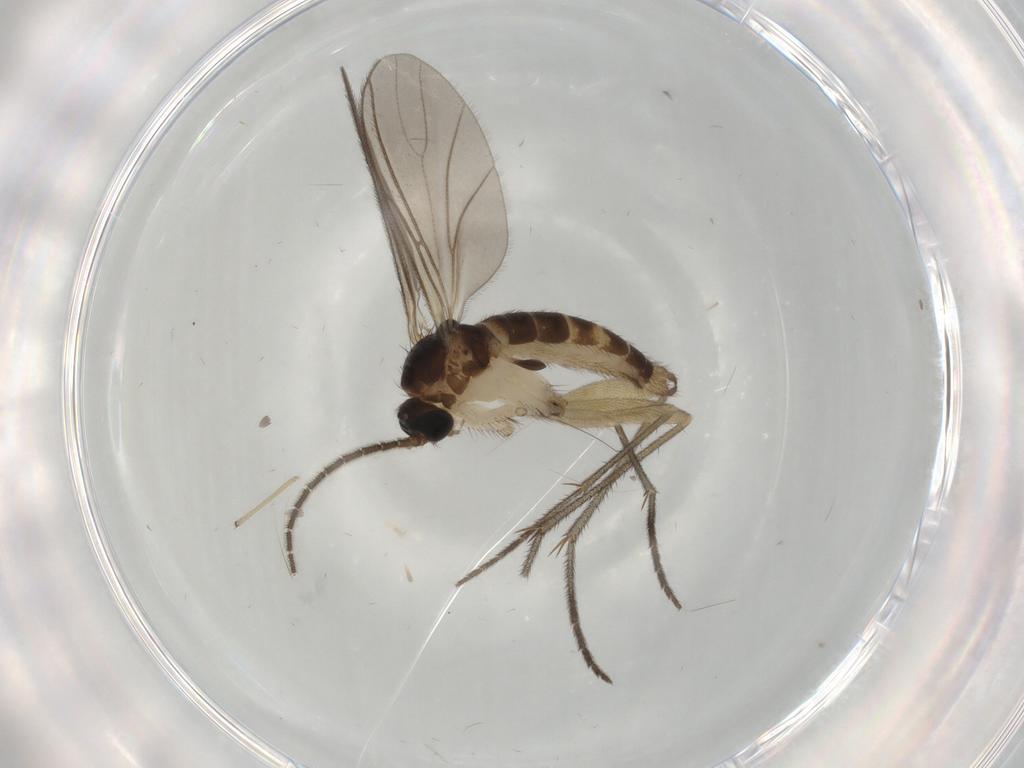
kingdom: Animalia
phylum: Arthropoda
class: Insecta
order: Diptera
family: Sciaridae
